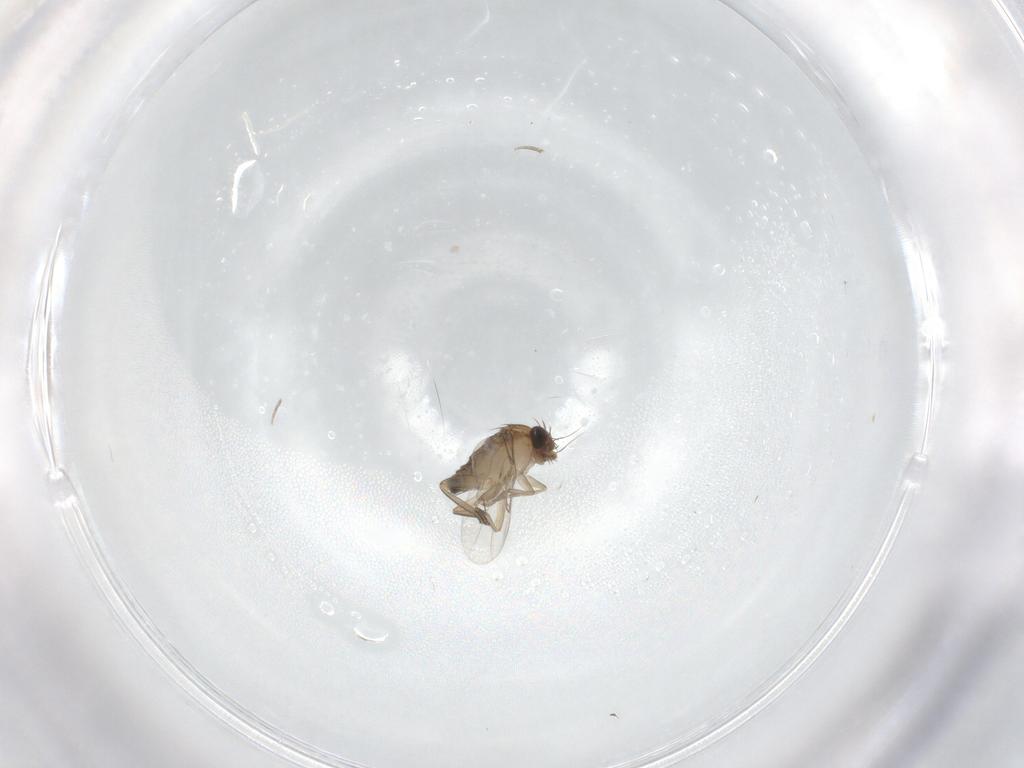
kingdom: Animalia
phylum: Arthropoda
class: Insecta
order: Diptera
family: Phoridae
